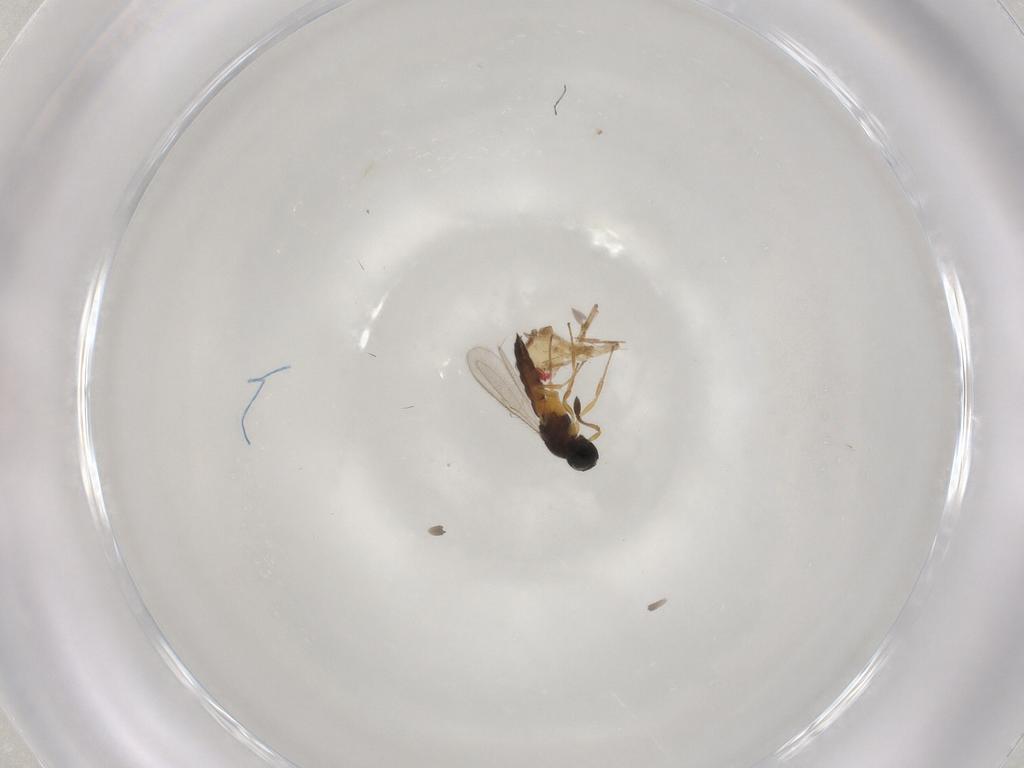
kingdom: Animalia
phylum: Arthropoda
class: Insecta
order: Hymenoptera
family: Scelionidae
